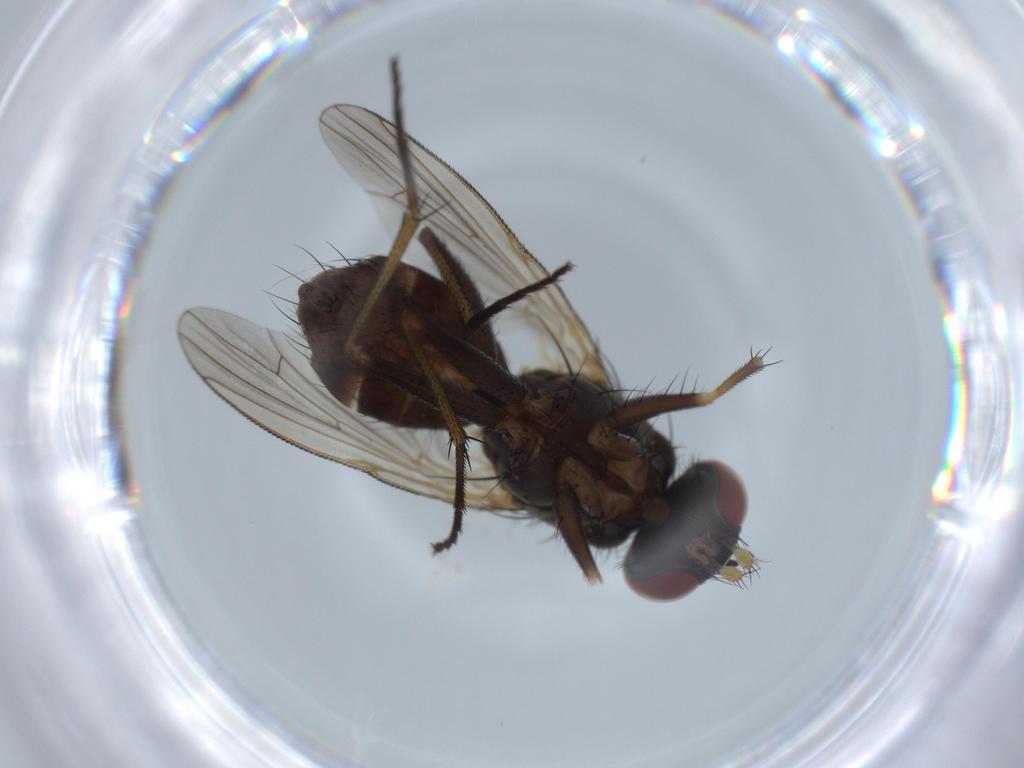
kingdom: Animalia
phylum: Arthropoda
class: Insecta
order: Diptera
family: Muscidae
